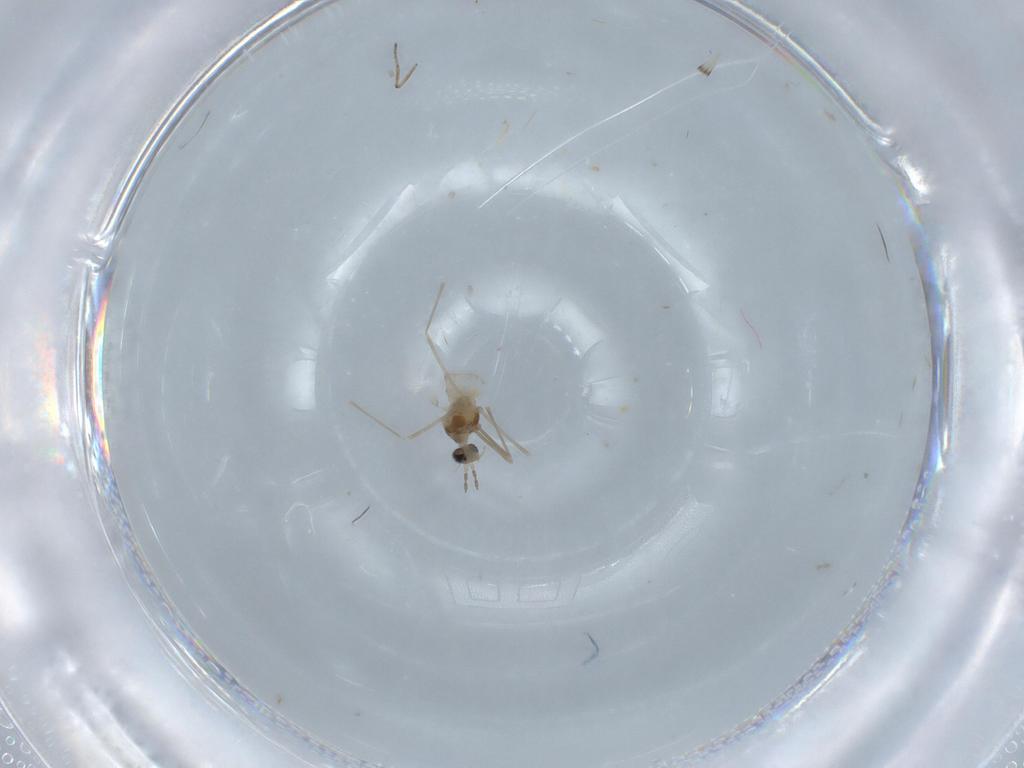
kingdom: Animalia
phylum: Arthropoda
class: Insecta
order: Diptera
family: Cecidomyiidae
